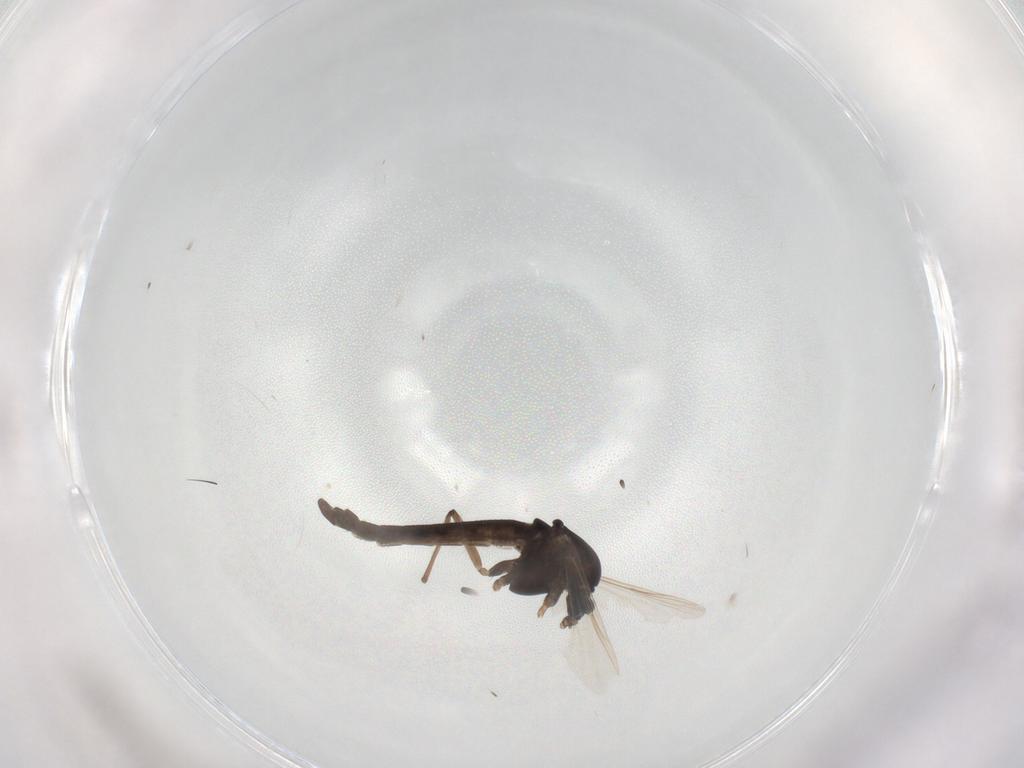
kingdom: Animalia
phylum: Arthropoda
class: Insecta
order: Diptera
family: Chironomidae
